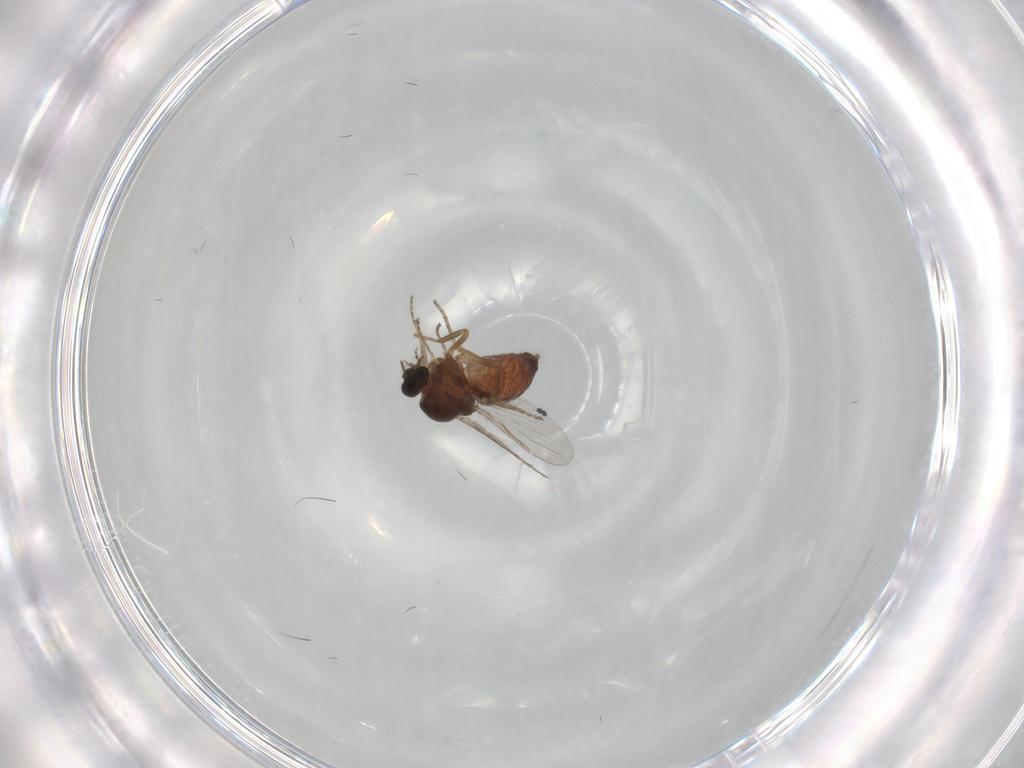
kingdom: Animalia
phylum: Arthropoda
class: Insecta
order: Diptera
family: Ceratopogonidae
